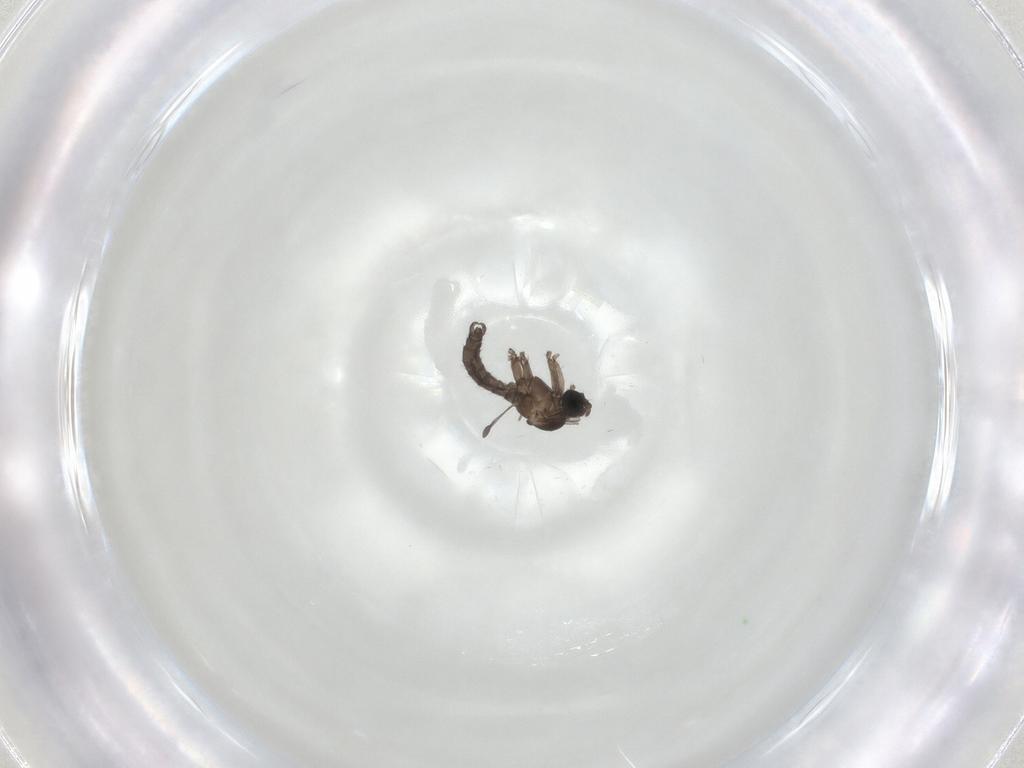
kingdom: Animalia
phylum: Arthropoda
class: Insecta
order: Diptera
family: Sciaridae
